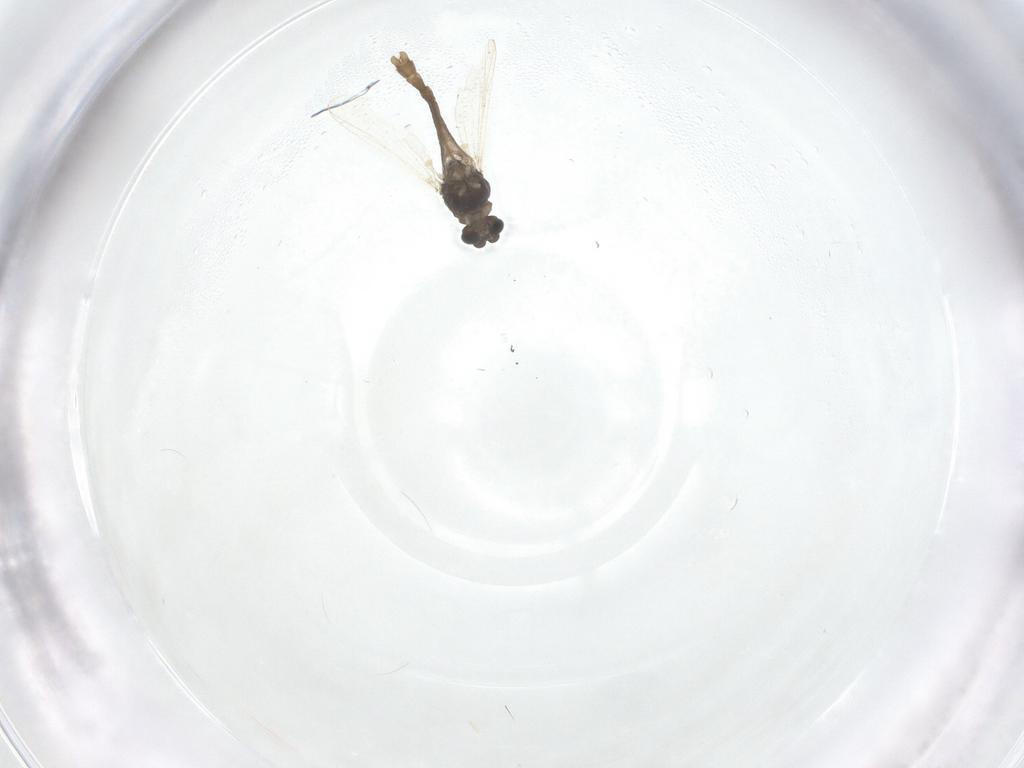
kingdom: Animalia
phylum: Arthropoda
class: Insecta
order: Diptera
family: Chironomidae
